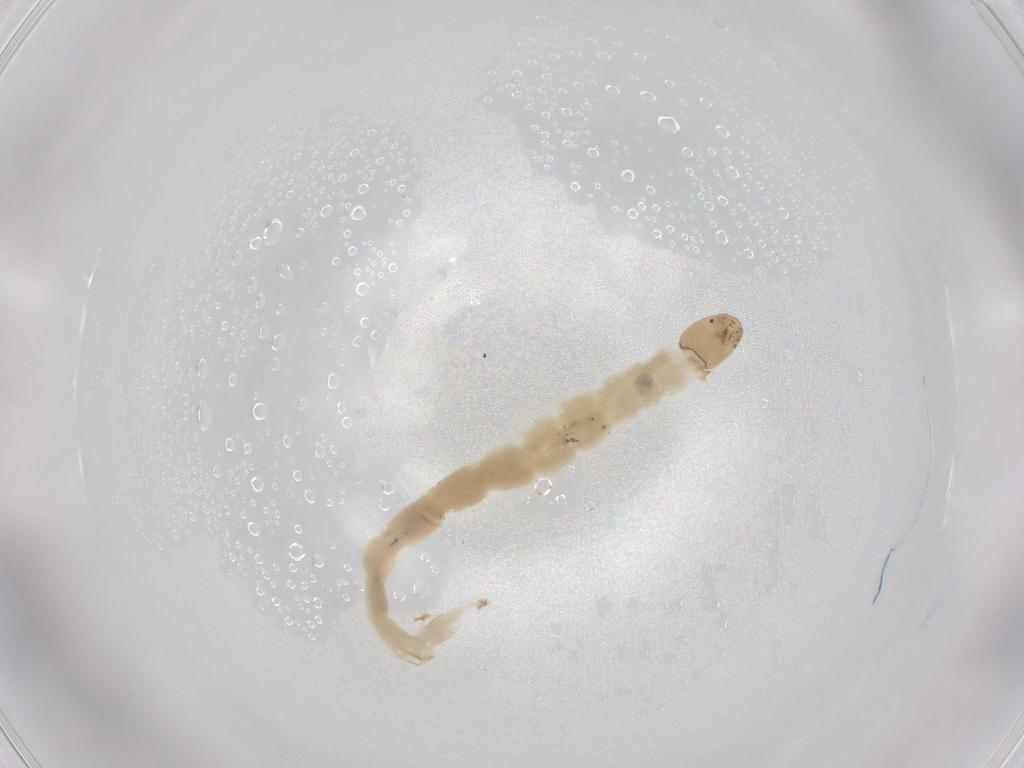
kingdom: Animalia
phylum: Arthropoda
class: Insecta
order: Diptera
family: Chironomidae
